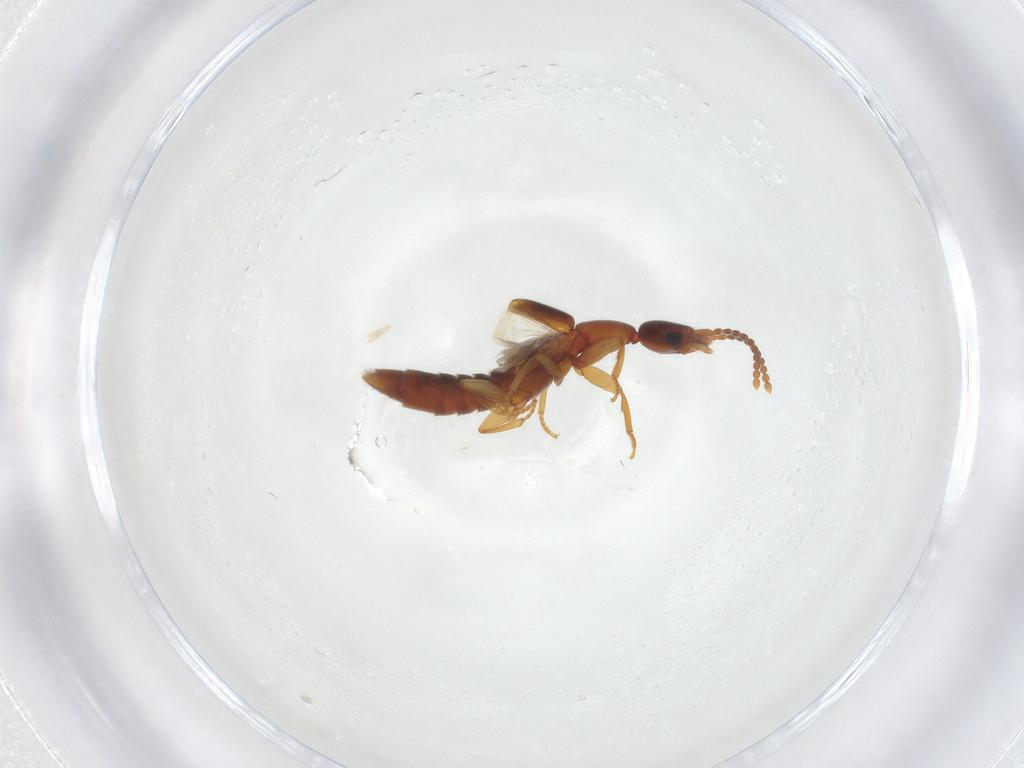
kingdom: Animalia
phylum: Arthropoda
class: Insecta
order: Coleoptera
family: Staphylinidae
